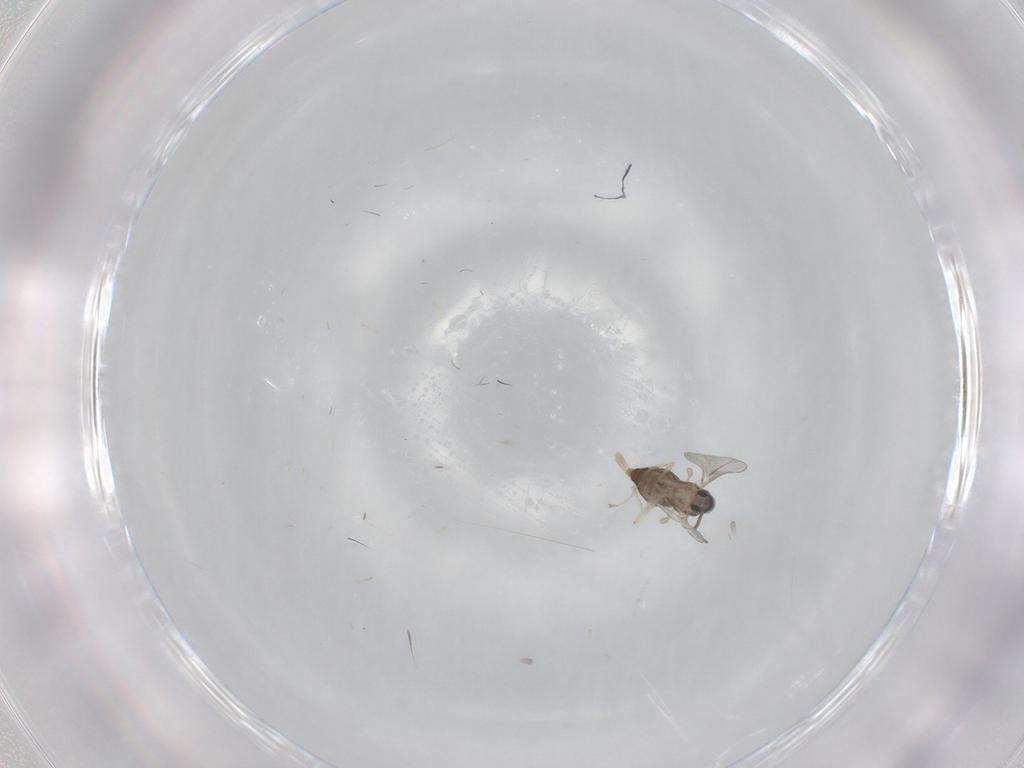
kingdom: Animalia
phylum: Arthropoda
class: Insecta
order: Diptera
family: Cecidomyiidae
